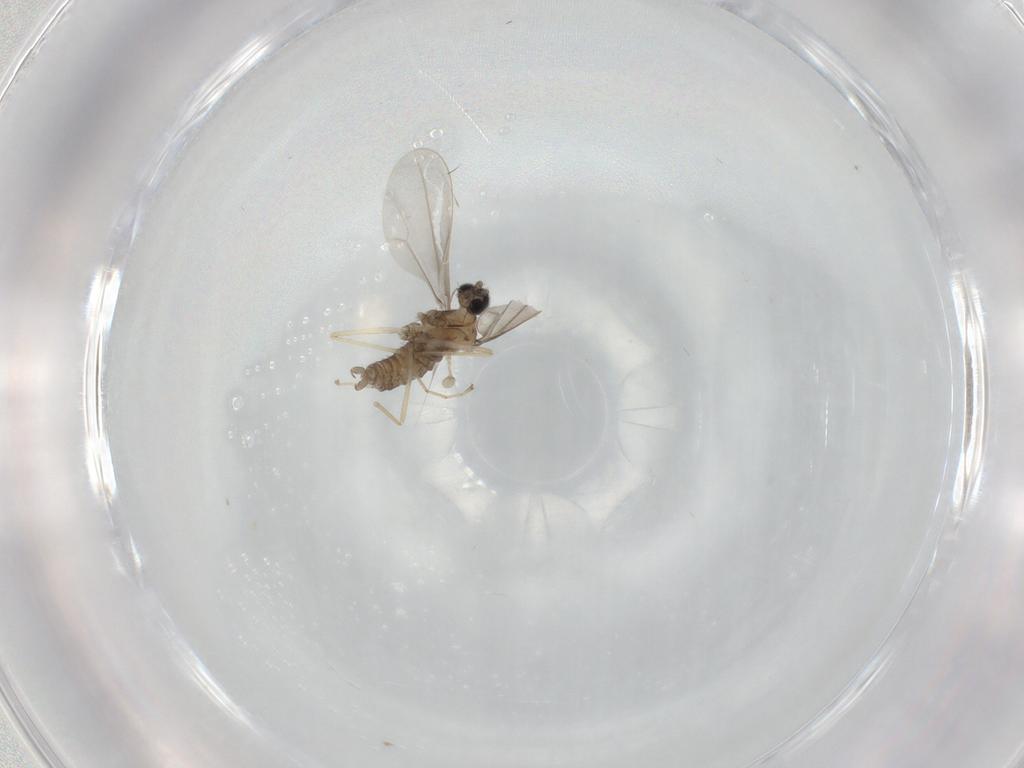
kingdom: Animalia
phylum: Arthropoda
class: Insecta
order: Diptera
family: Cecidomyiidae
